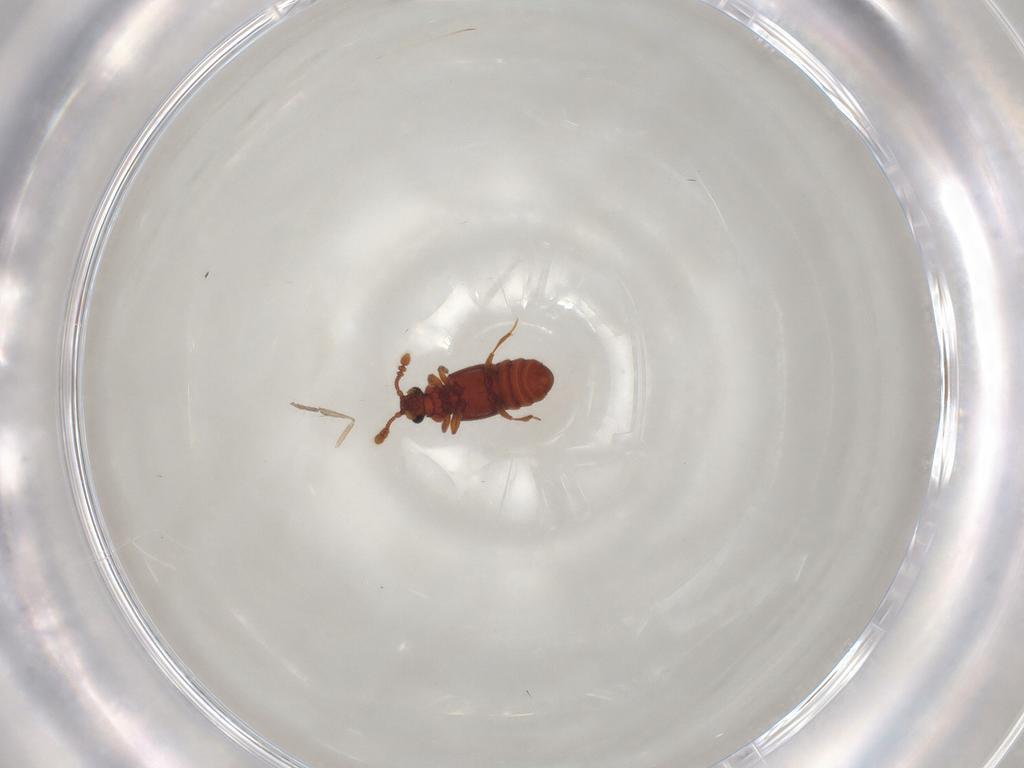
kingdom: Animalia
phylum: Arthropoda
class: Insecta
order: Coleoptera
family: Staphylinidae
